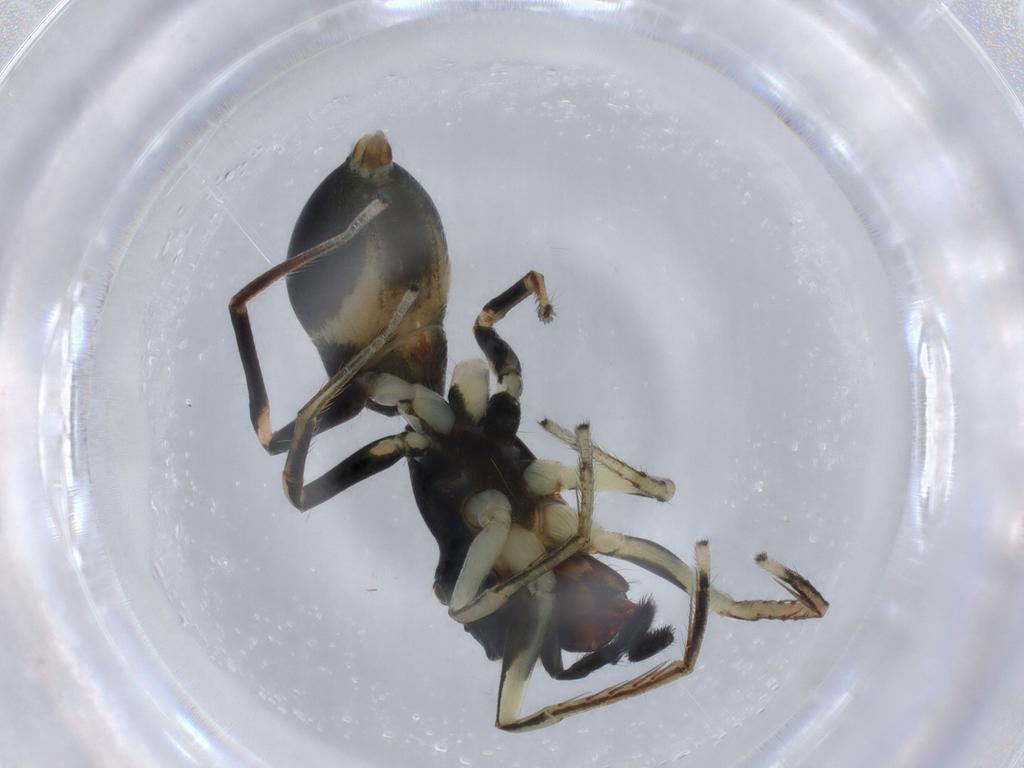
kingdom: Animalia
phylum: Arthropoda
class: Arachnida
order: Araneae
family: Salticidae
